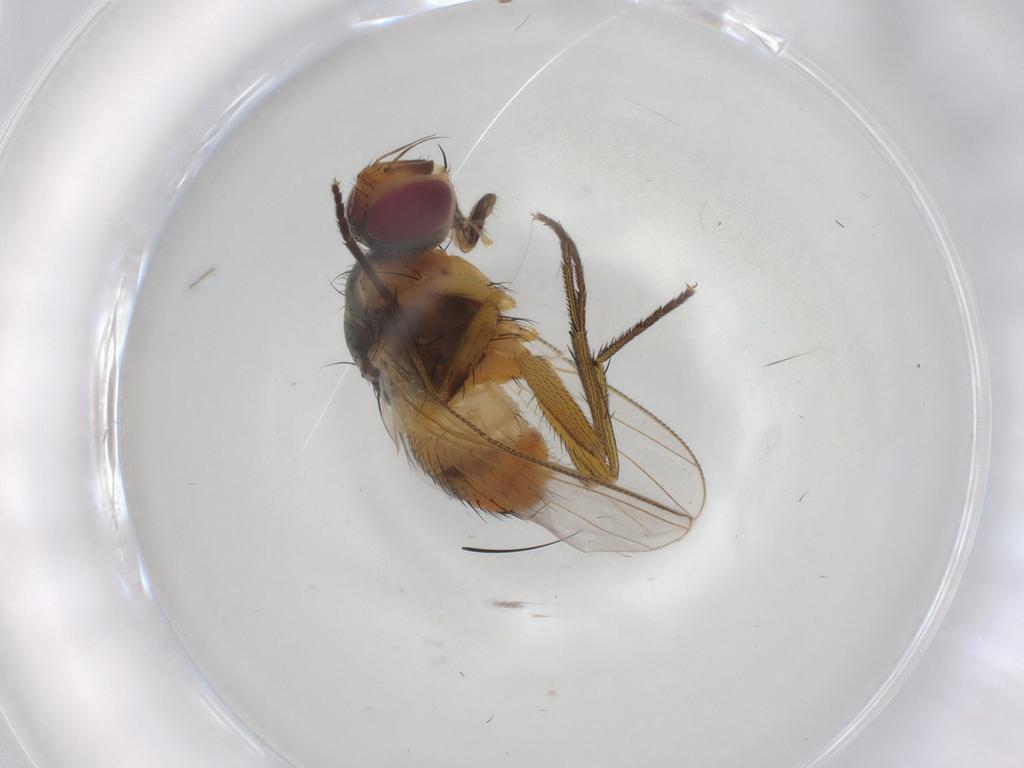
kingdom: Animalia
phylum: Arthropoda
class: Insecta
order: Diptera
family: Muscidae
